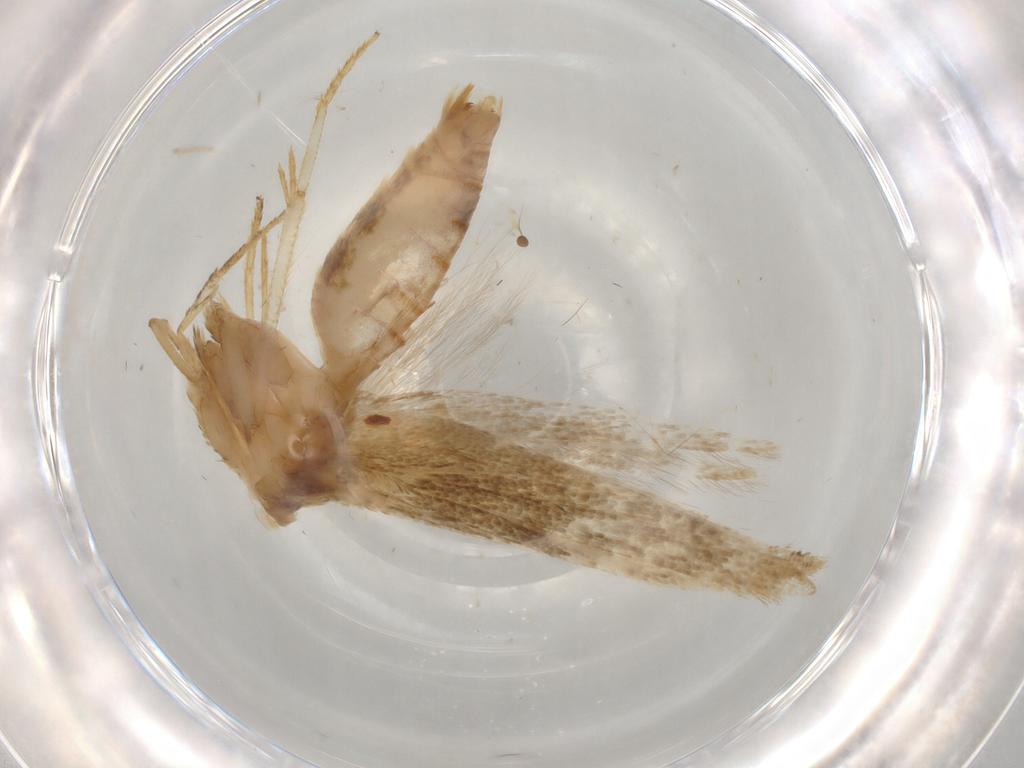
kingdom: Animalia
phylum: Arthropoda
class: Insecta
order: Lepidoptera
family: Blastobasidae
